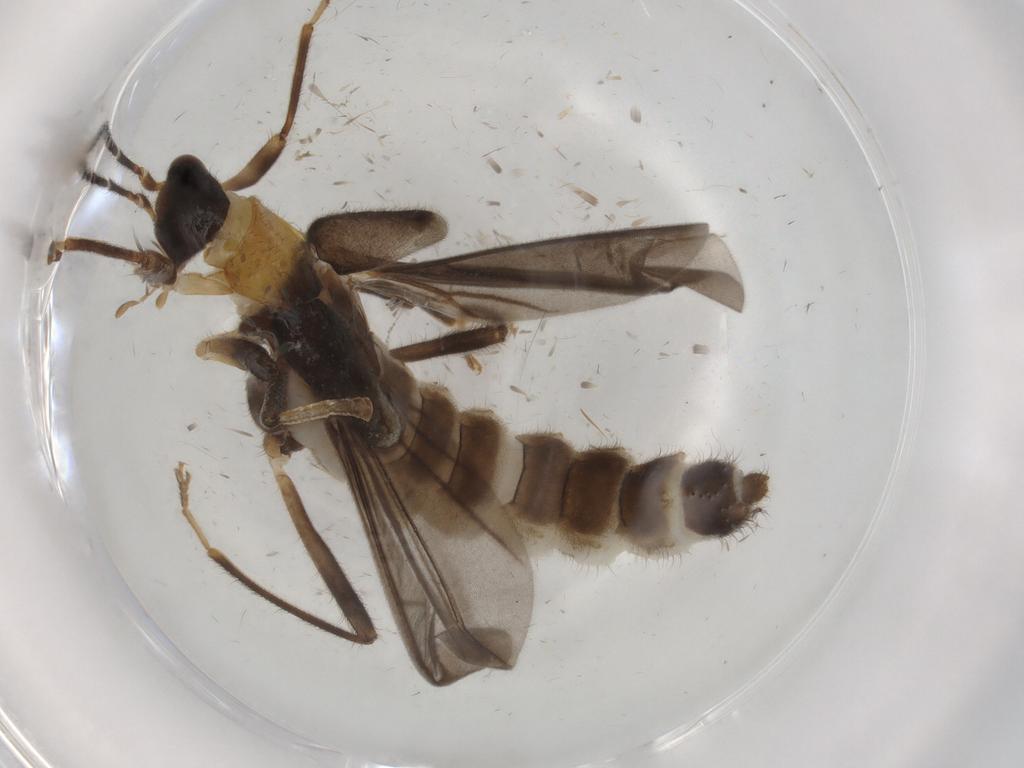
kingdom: Animalia
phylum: Arthropoda
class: Insecta
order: Coleoptera
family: Cantharidae
